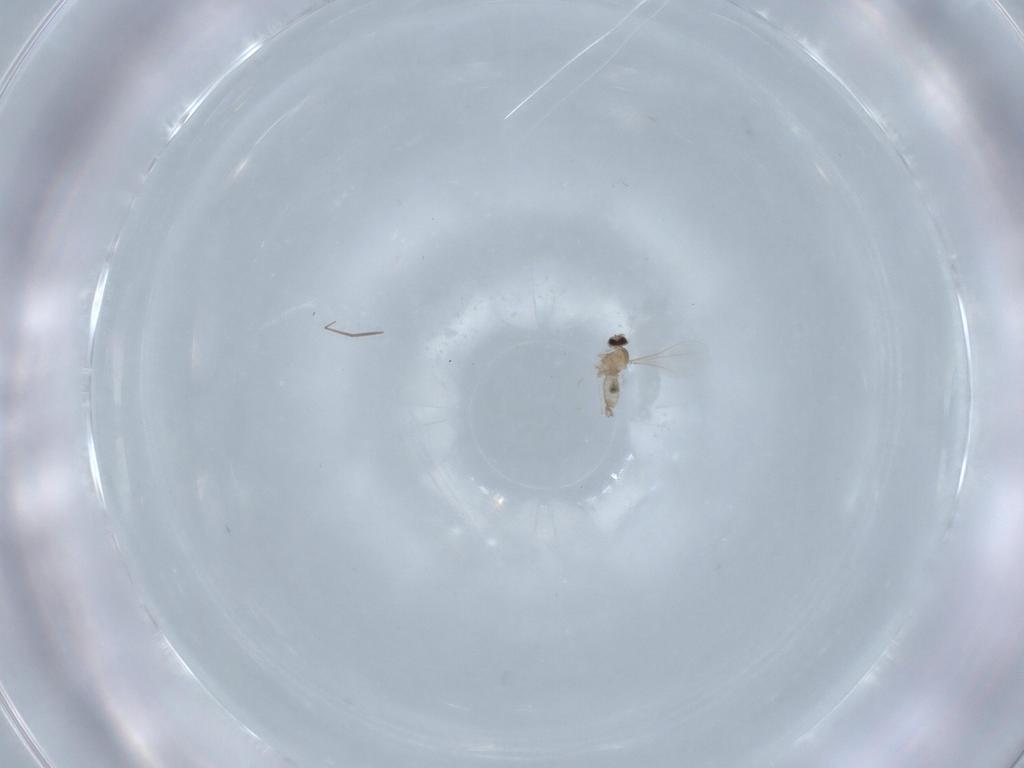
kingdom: Animalia
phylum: Arthropoda
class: Insecta
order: Diptera
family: Cecidomyiidae
